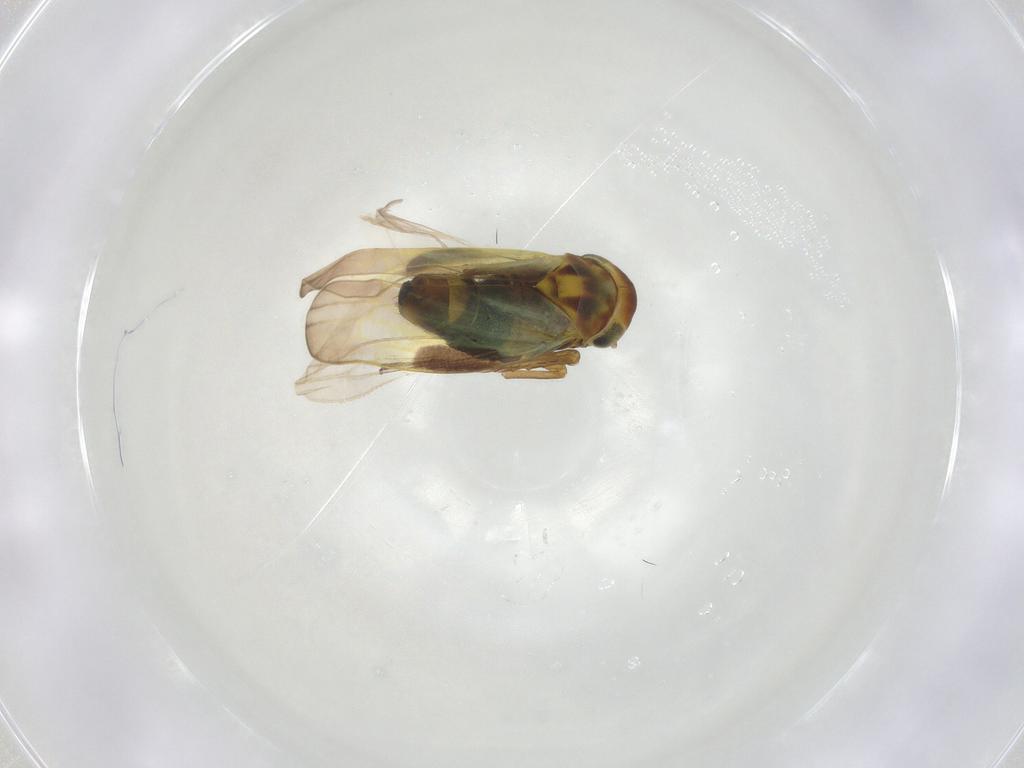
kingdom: Animalia
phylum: Arthropoda
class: Insecta
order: Hemiptera
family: Cicadellidae
